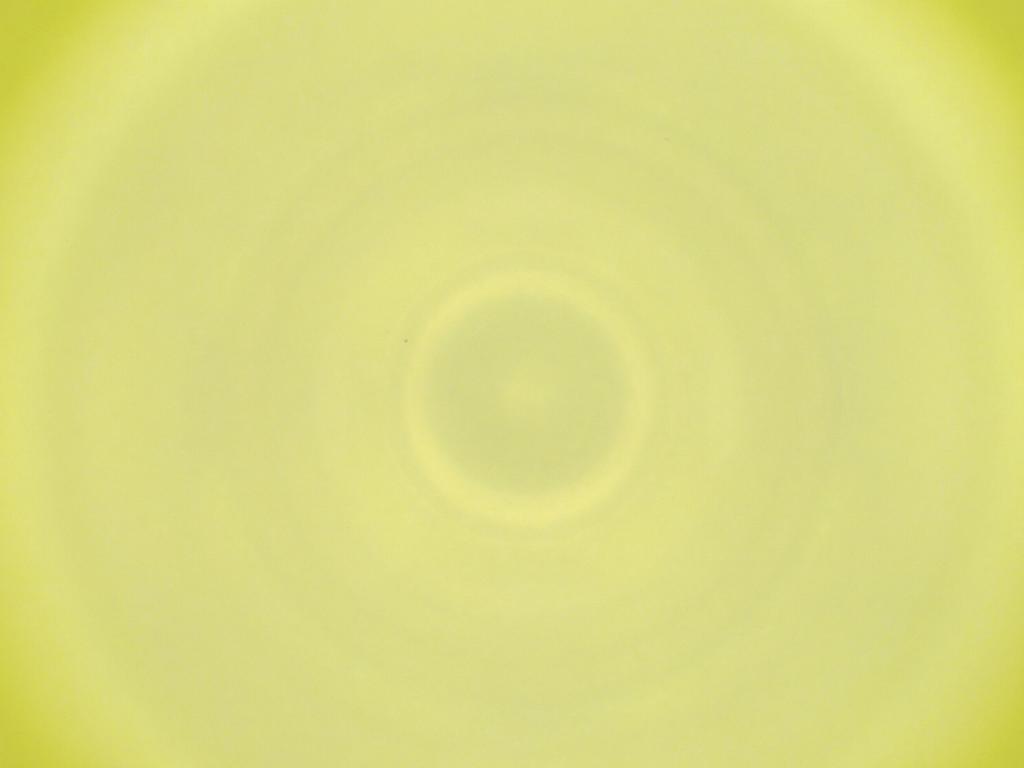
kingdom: Animalia
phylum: Arthropoda
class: Insecta
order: Diptera
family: Cecidomyiidae
